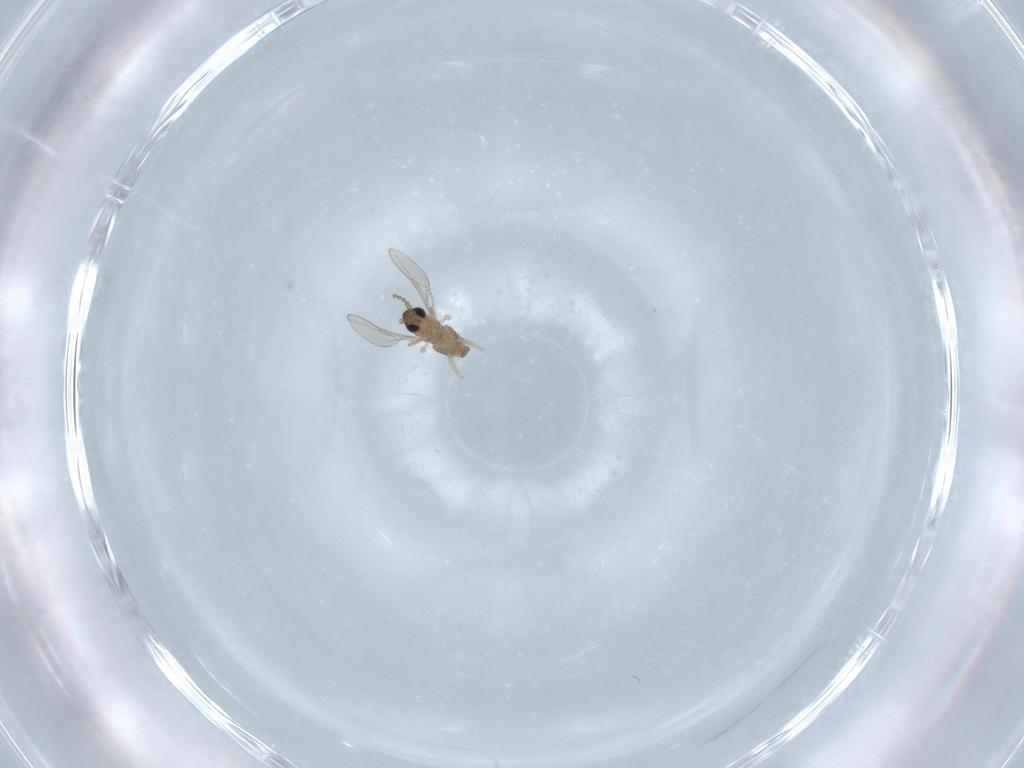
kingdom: Animalia
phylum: Arthropoda
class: Insecta
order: Diptera
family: Cecidomyiidae
